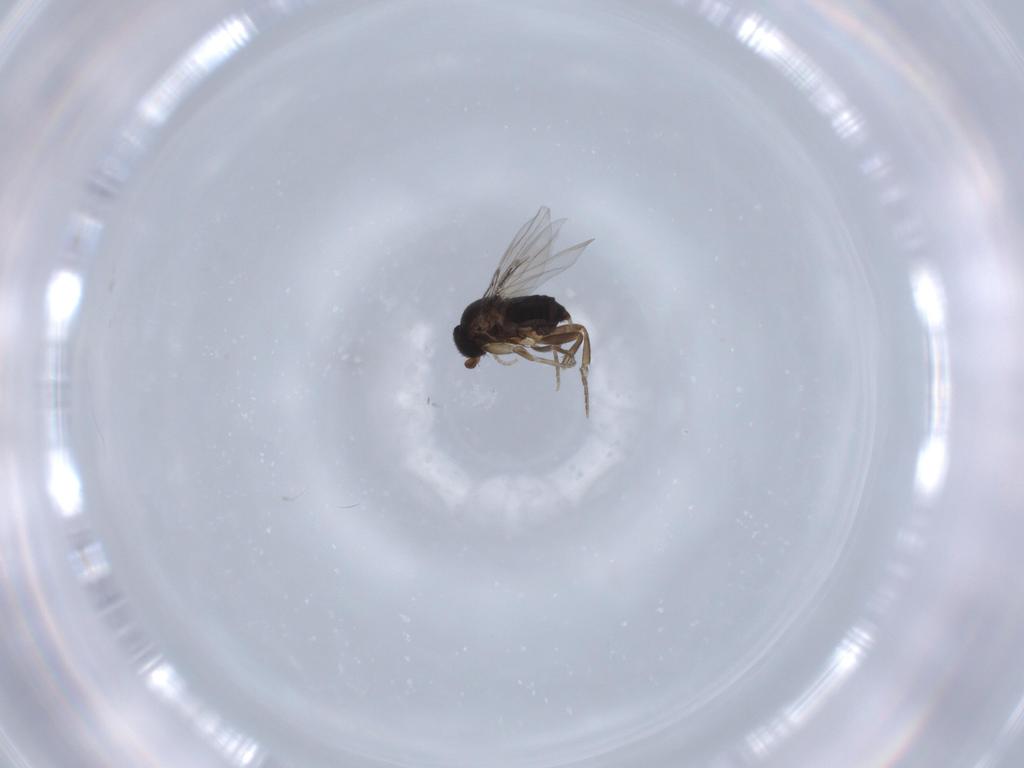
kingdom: Animalia
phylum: Arthropoda
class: Insecta
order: Diptera
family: Phoridae
